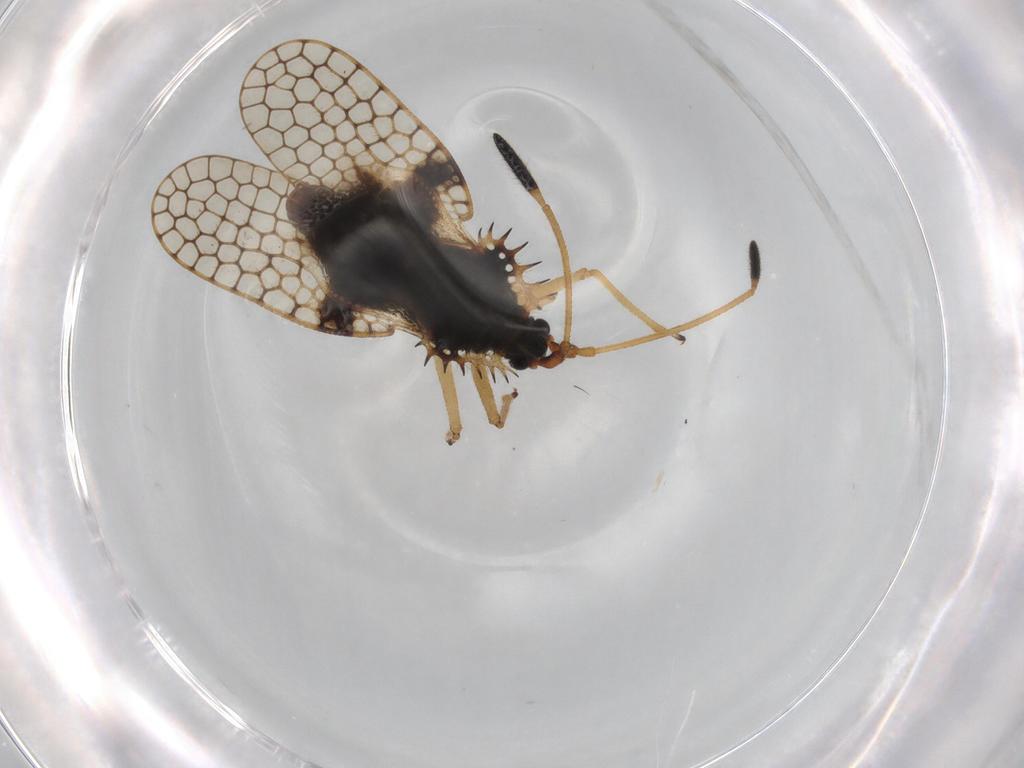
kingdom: Animalia
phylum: Arthropoda
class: Insecta
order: Hemiptera
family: Tingidae
